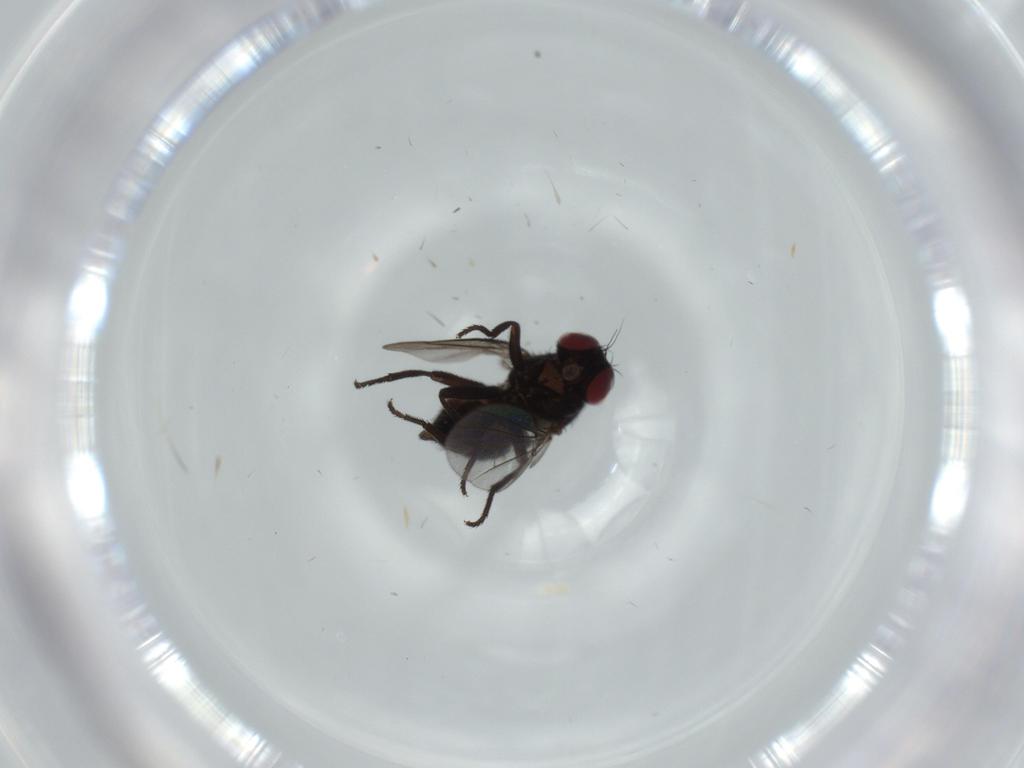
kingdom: Animalia
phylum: Arthropoda
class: Insecta
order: Diptera
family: Agromyzidae
